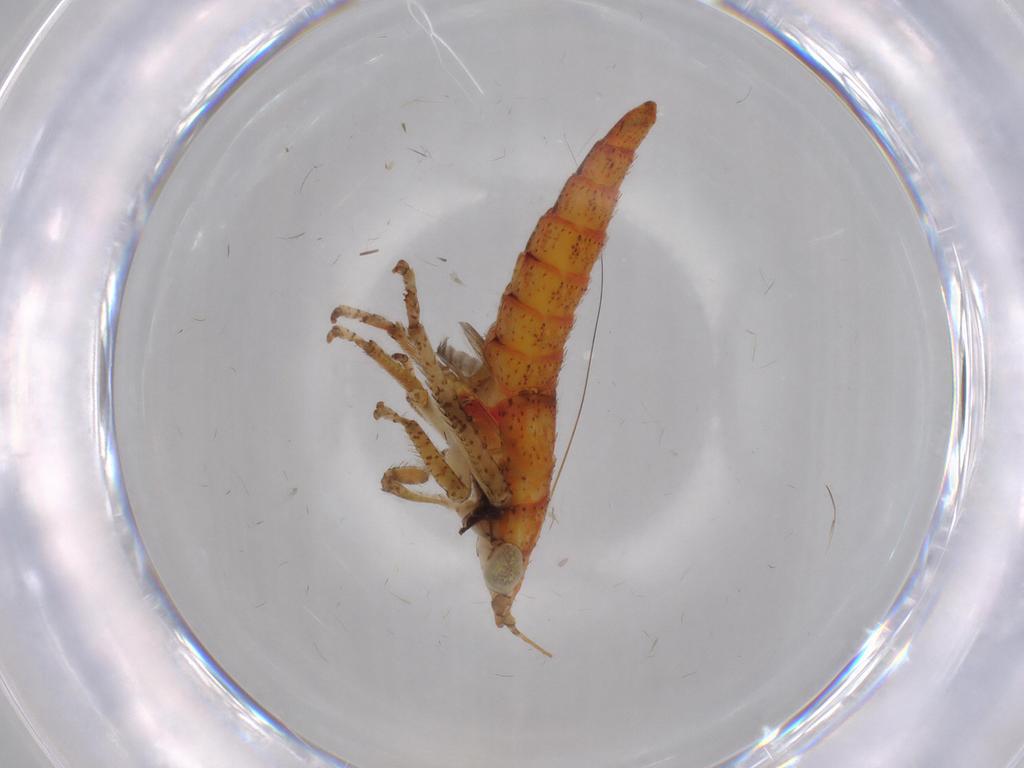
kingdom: Animalia
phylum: Arthropoda
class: Insecta
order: Hemiptera
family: Cicadellidae
